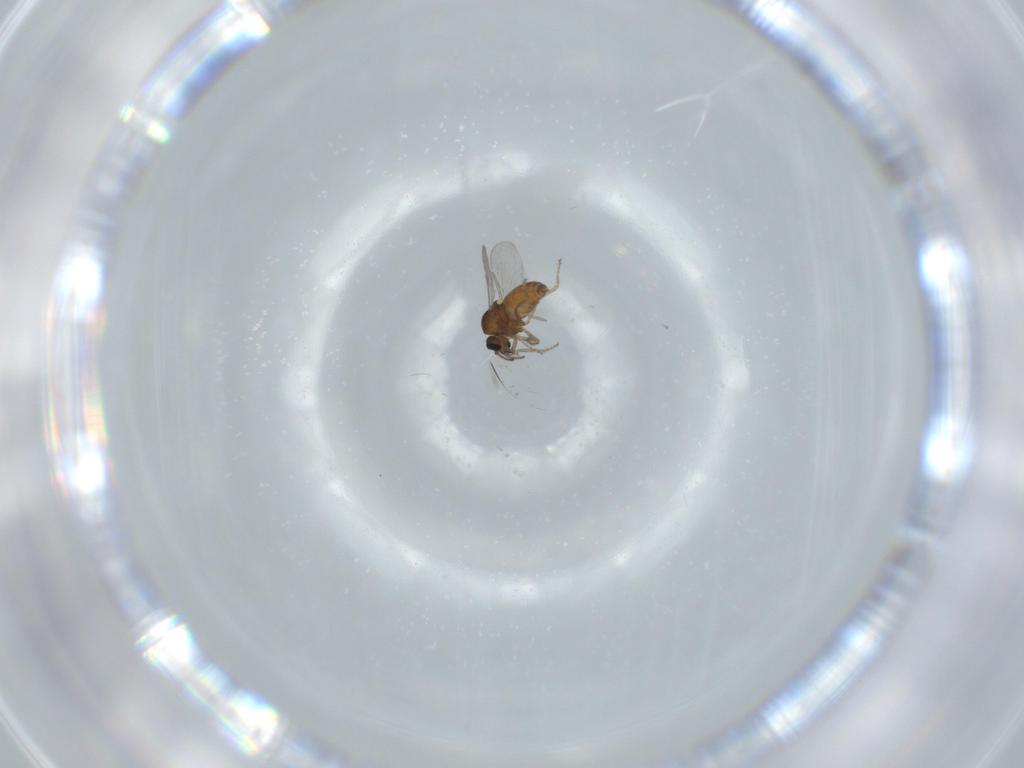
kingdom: Animalia
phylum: Arthropoda
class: Insecta
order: Diptera
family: Ceratopogonidae
